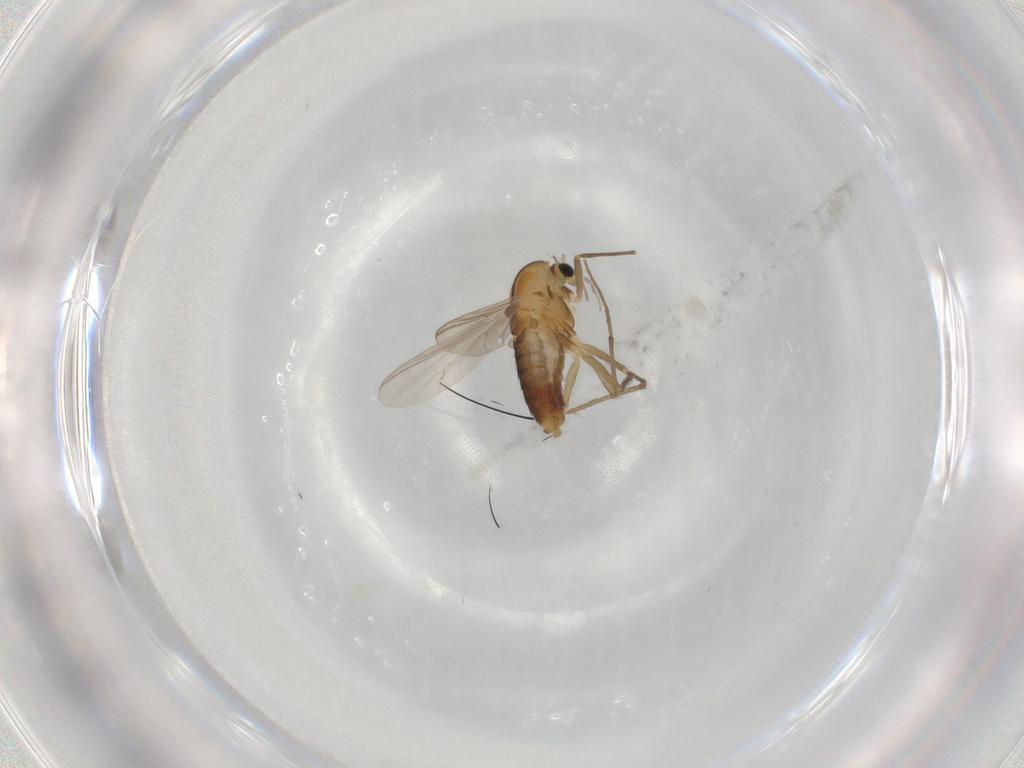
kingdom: Animalia
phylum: Arthropoda
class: Insecta
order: Diptera
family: Chironomidae
